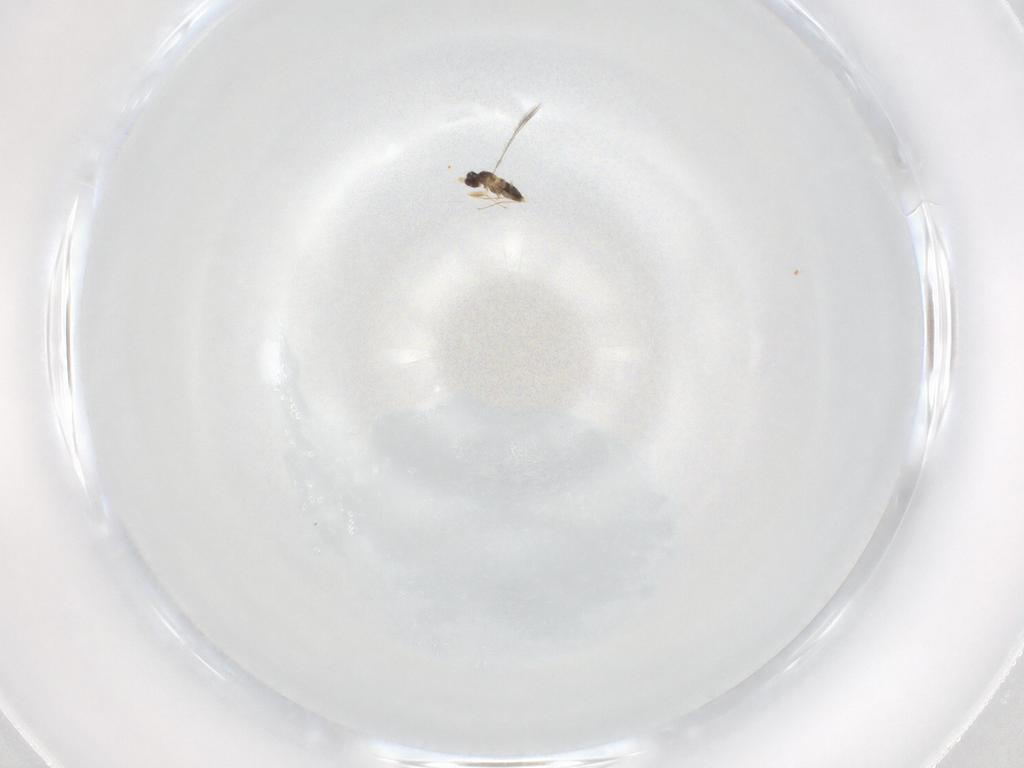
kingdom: Animalia
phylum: Arthropoda
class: Insecta
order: Hymenoptera
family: Mymaridae
